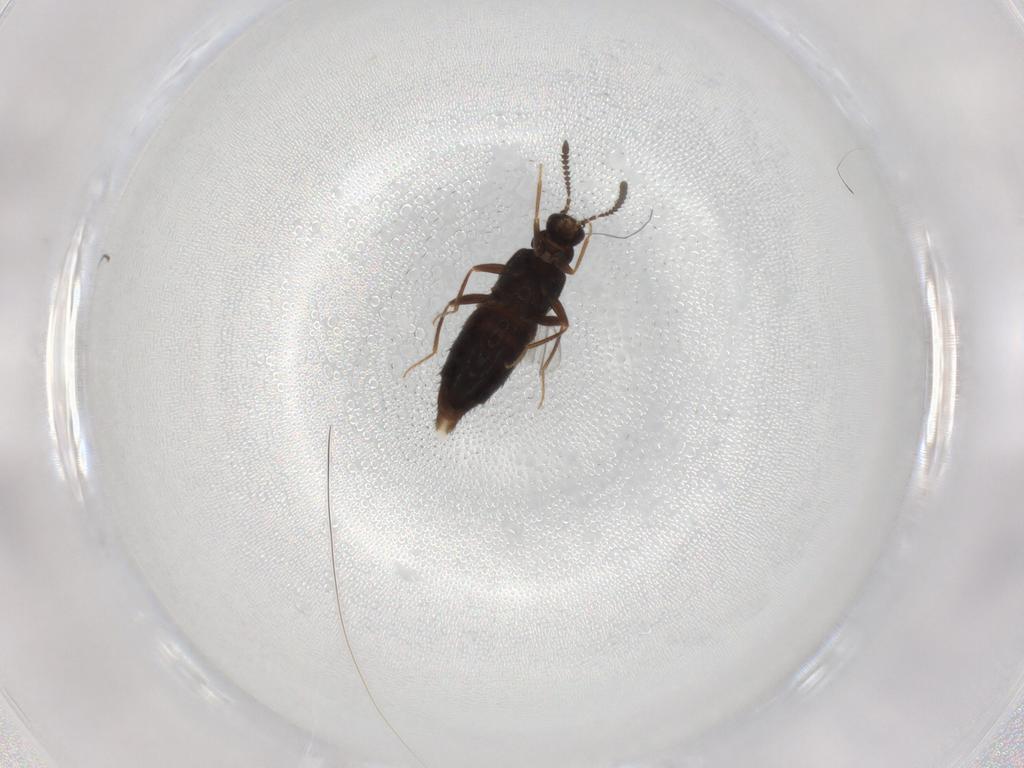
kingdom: Animalia
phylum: Arthropoda
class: Insecta
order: Coleoptera
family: Staphylinidae
